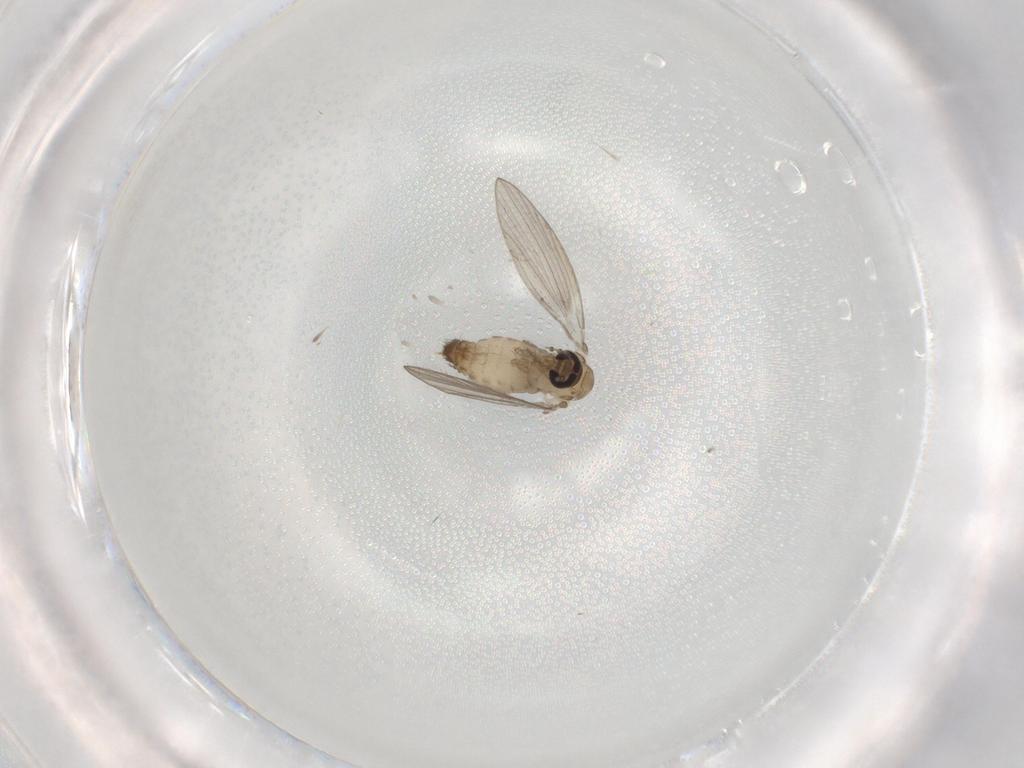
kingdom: Animalia
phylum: Arthropoda
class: Insecta
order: Diptera
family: Psychodidae
